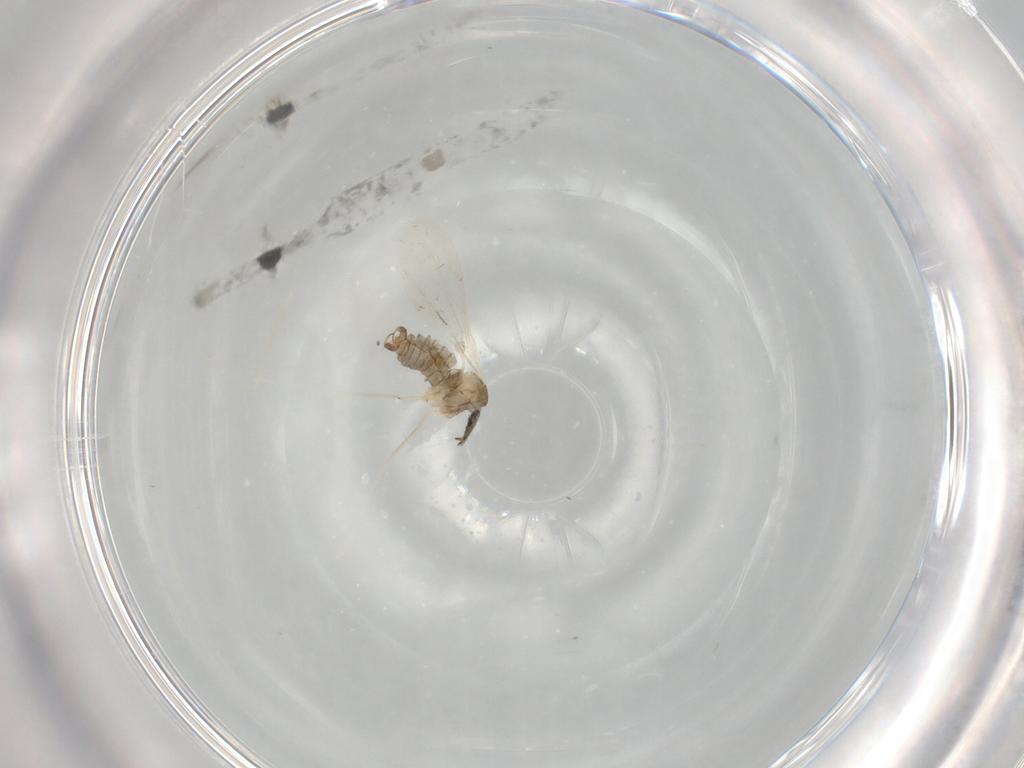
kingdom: Animalia
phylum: Arthropoda
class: Insecta
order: Diptera
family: Cecidomyiidae
